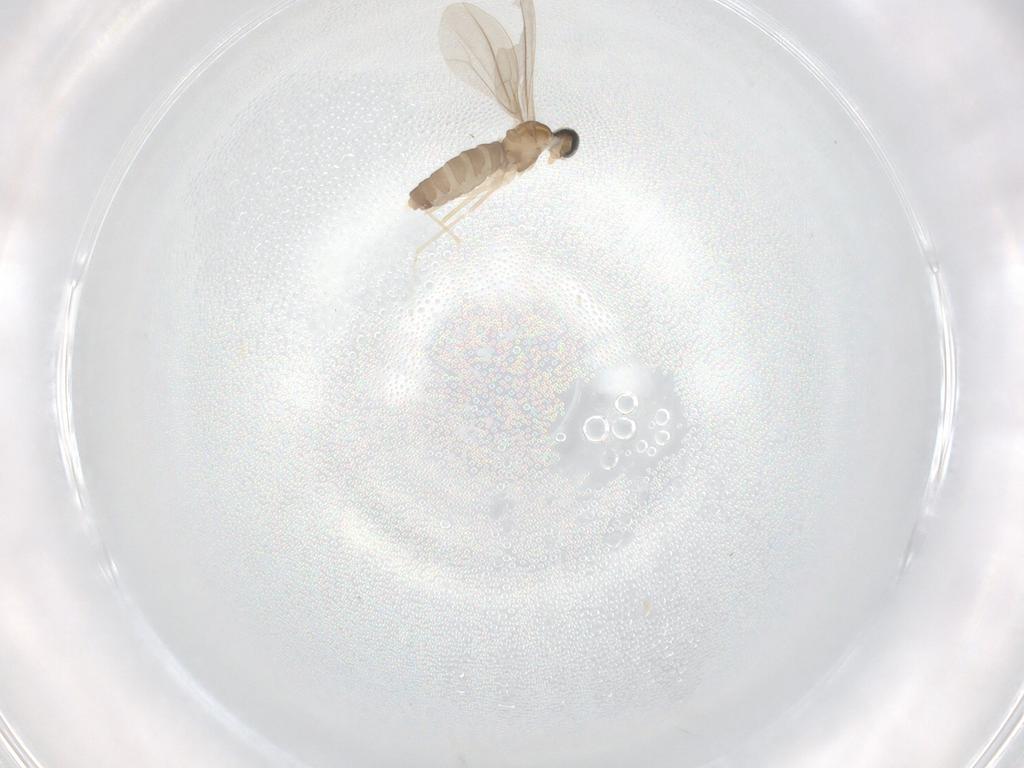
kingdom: Animalia
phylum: Arthropoda
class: Insecta
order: Diptera
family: Cecidomyiidae
